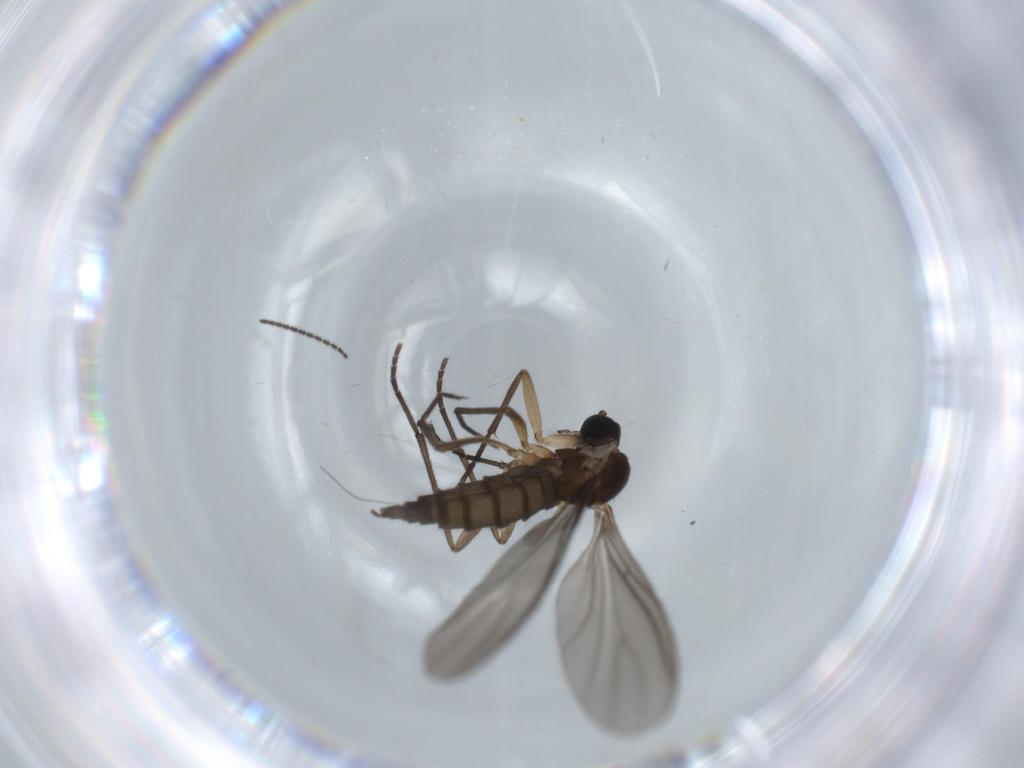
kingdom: Animalia
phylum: Arthropoda
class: Insecta
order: Diptera
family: Sciaridae
